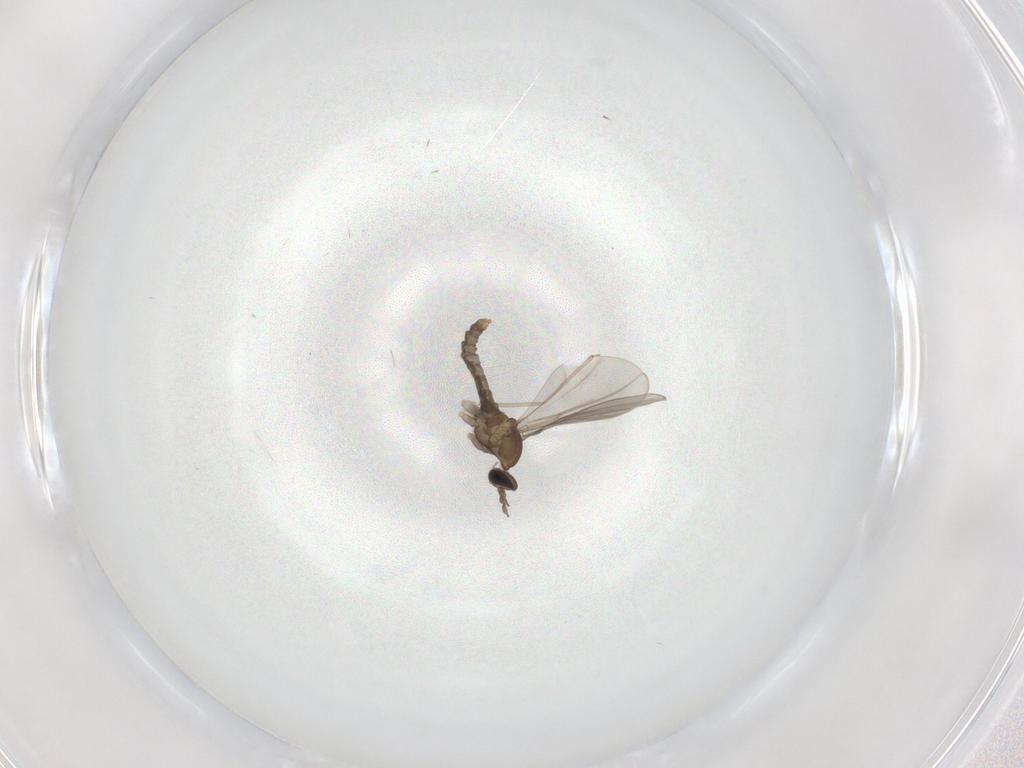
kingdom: Animalia
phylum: Arthropoda
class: Insecta
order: Diptera
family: Cecidomyiidae
